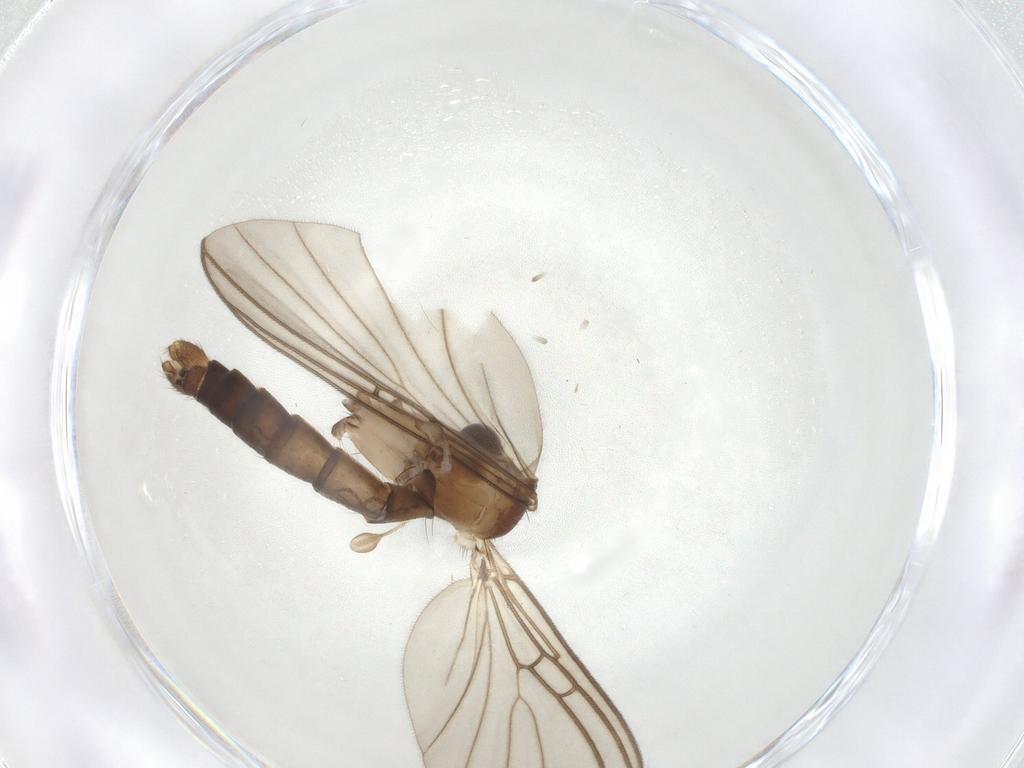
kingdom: Animalia
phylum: Arthropoda
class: Insecta
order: Diptera
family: Mycetophilidae
